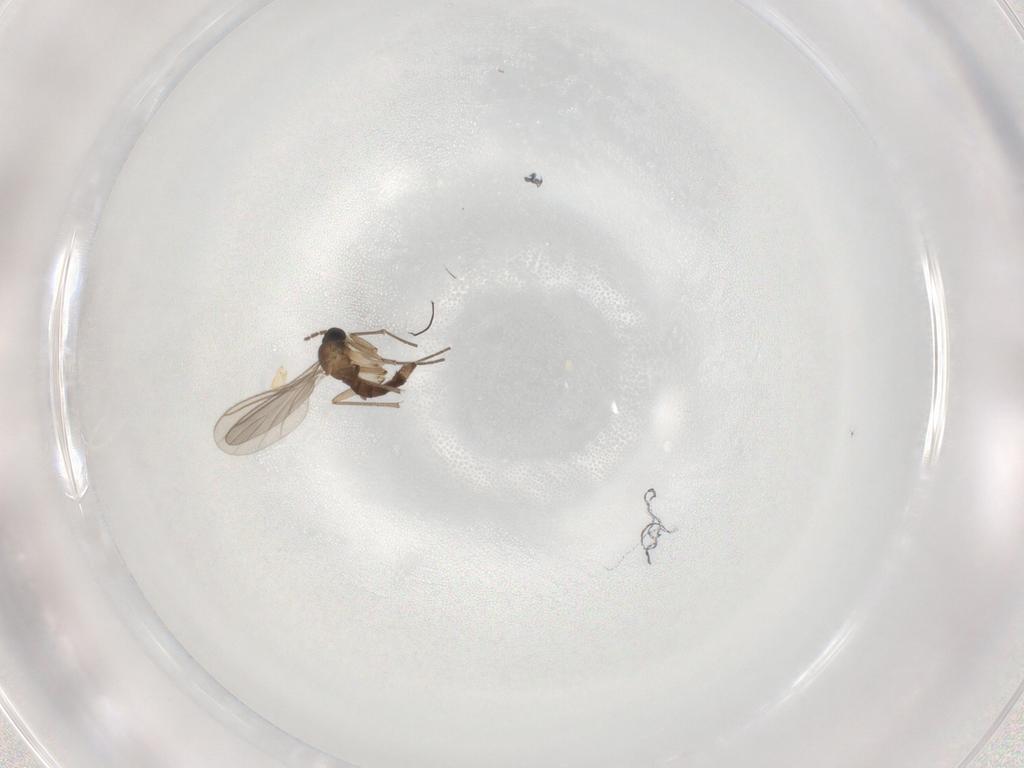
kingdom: Animalia
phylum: Arthropoda
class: Insecta
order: Diptera
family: Sciaridae
